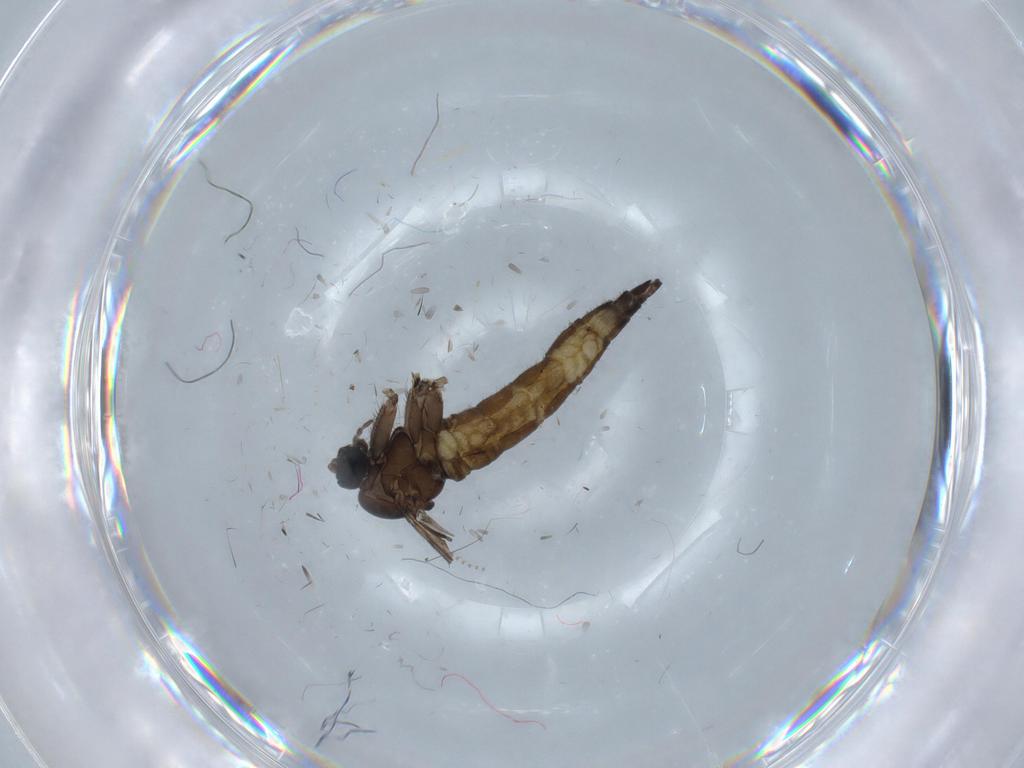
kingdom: Animalia
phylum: Arthropoda
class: Insecta
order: Diptera
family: Sciaridae
